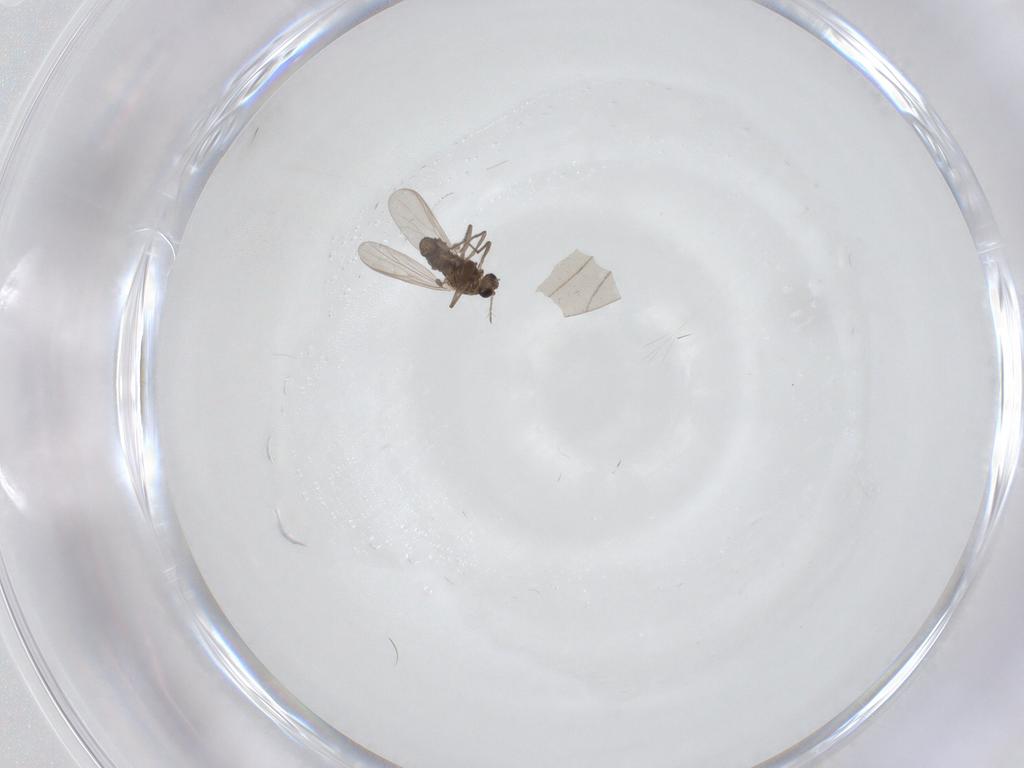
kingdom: Animalia
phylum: Arthropoda
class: Insecta
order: Diptera
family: Chironomidae
